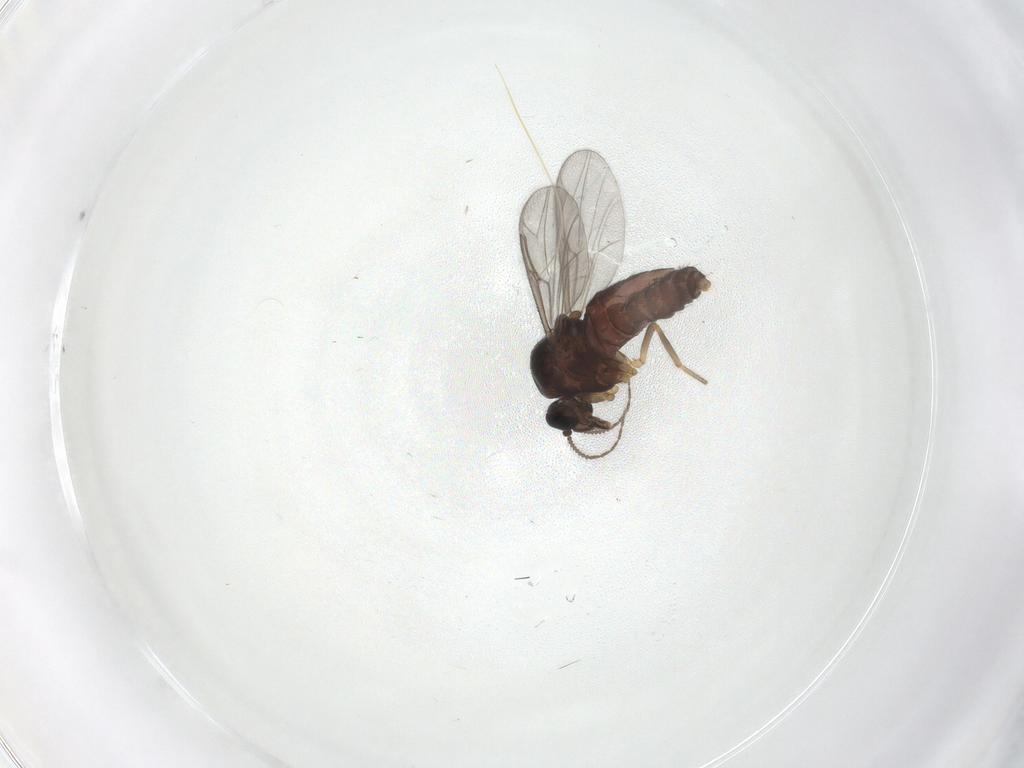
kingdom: Animalia
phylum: Arthropoda
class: Insecta
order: Diptera
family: Ceratopogonidae
